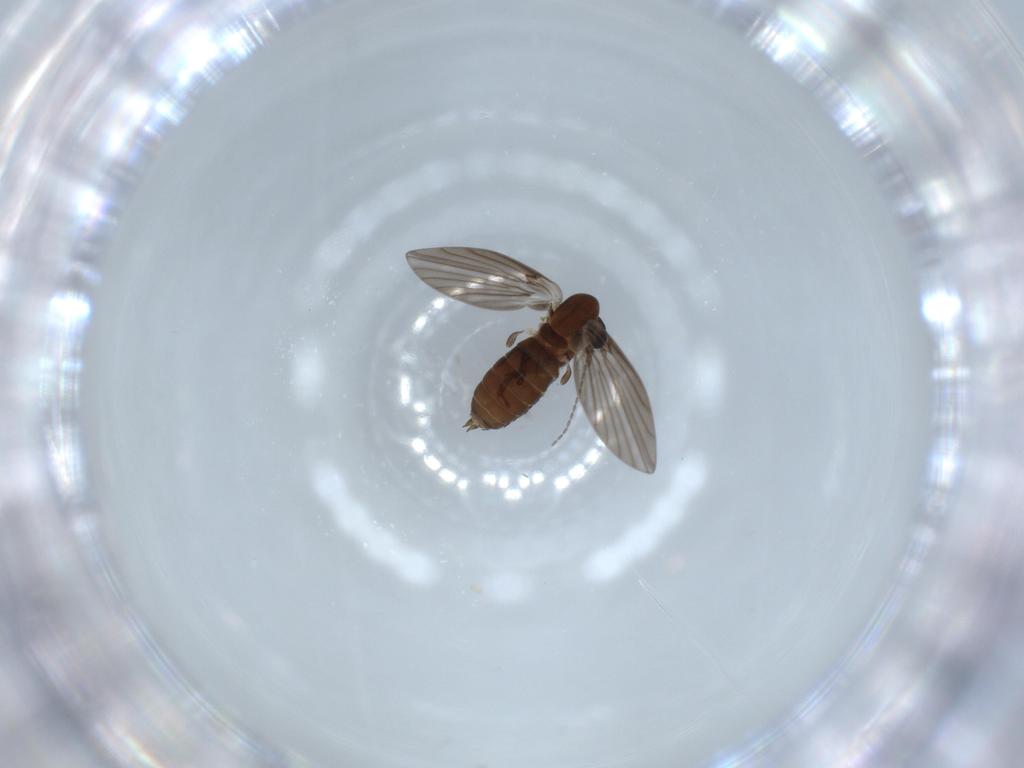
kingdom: Animalia
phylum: Arthropoda
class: Insecta
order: Diptera
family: Psychodidae
